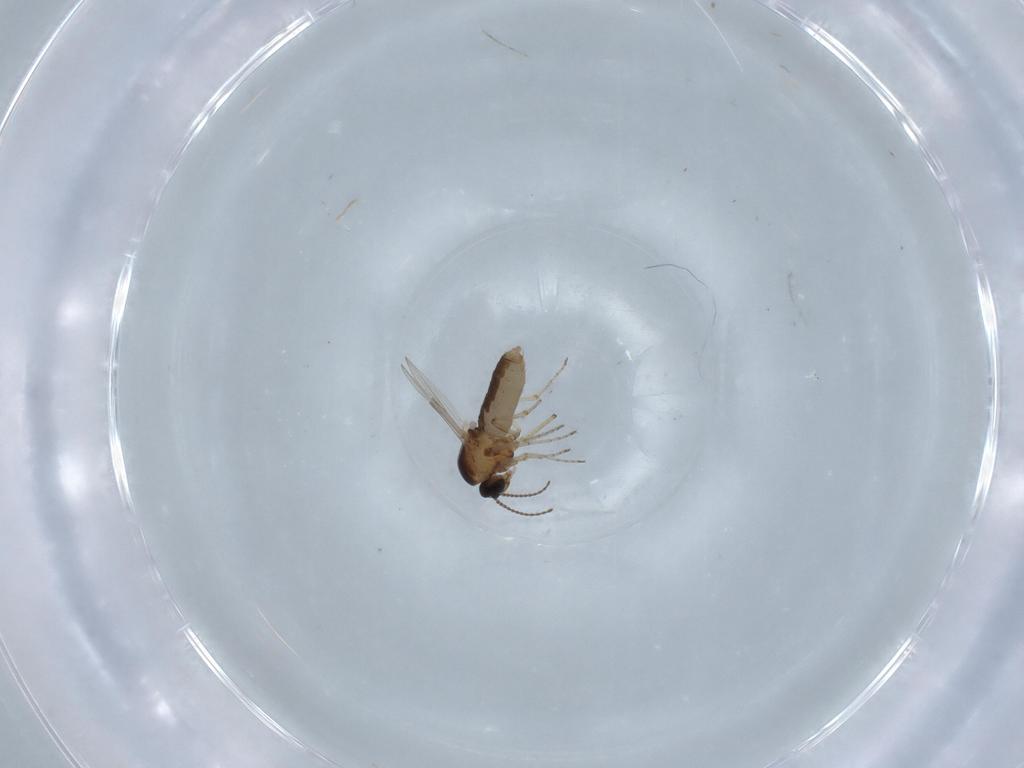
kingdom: Animalia
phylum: Arthropoda
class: Insecta
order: Diptera
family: Ceratopogonidae
